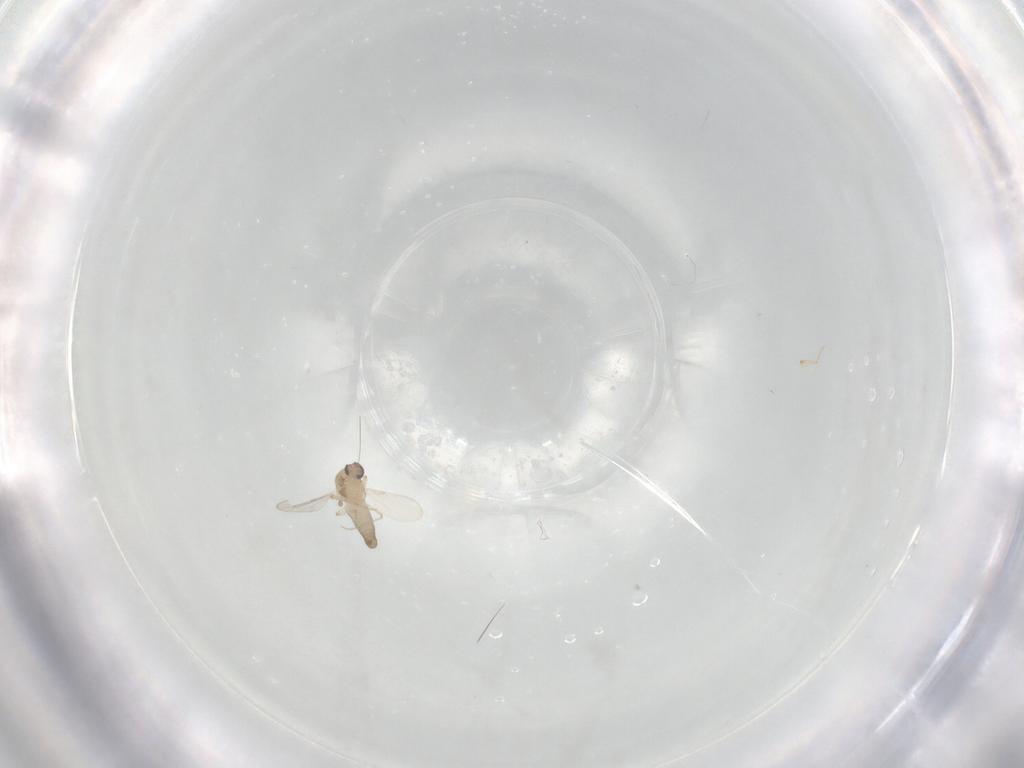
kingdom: Animalia
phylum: Arthropoda
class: Insecta
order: Diptera
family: Ceratopogonidae
